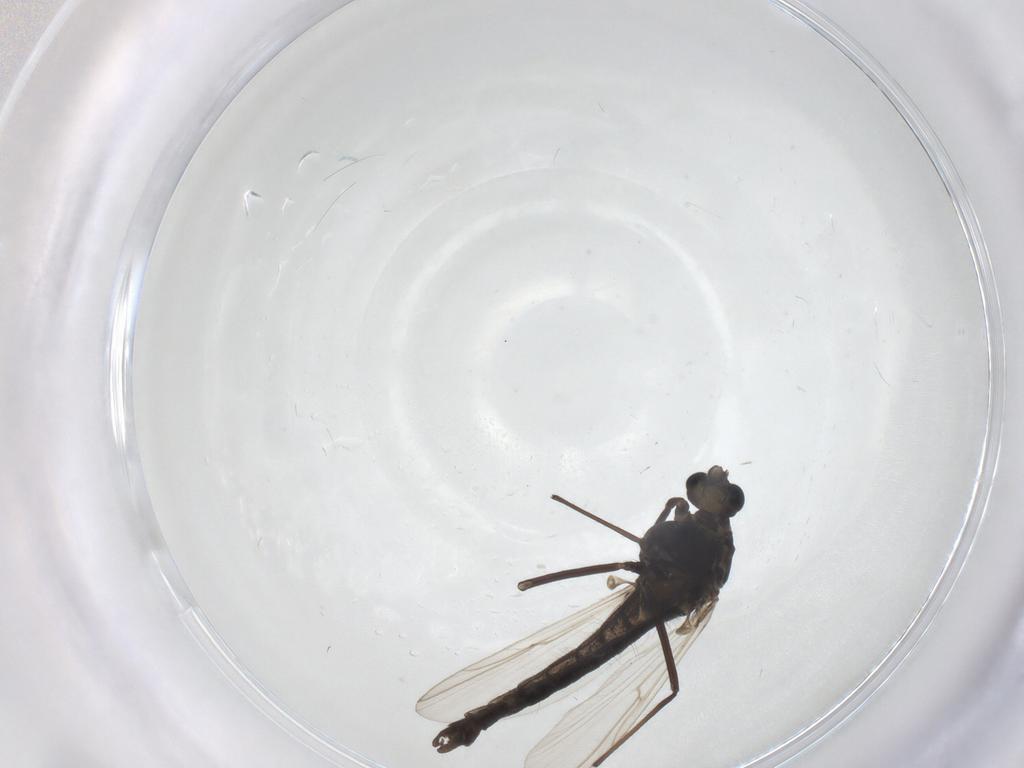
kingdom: Animalia
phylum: Arthropoda
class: Insecta
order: Diptera
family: Chironomidae
